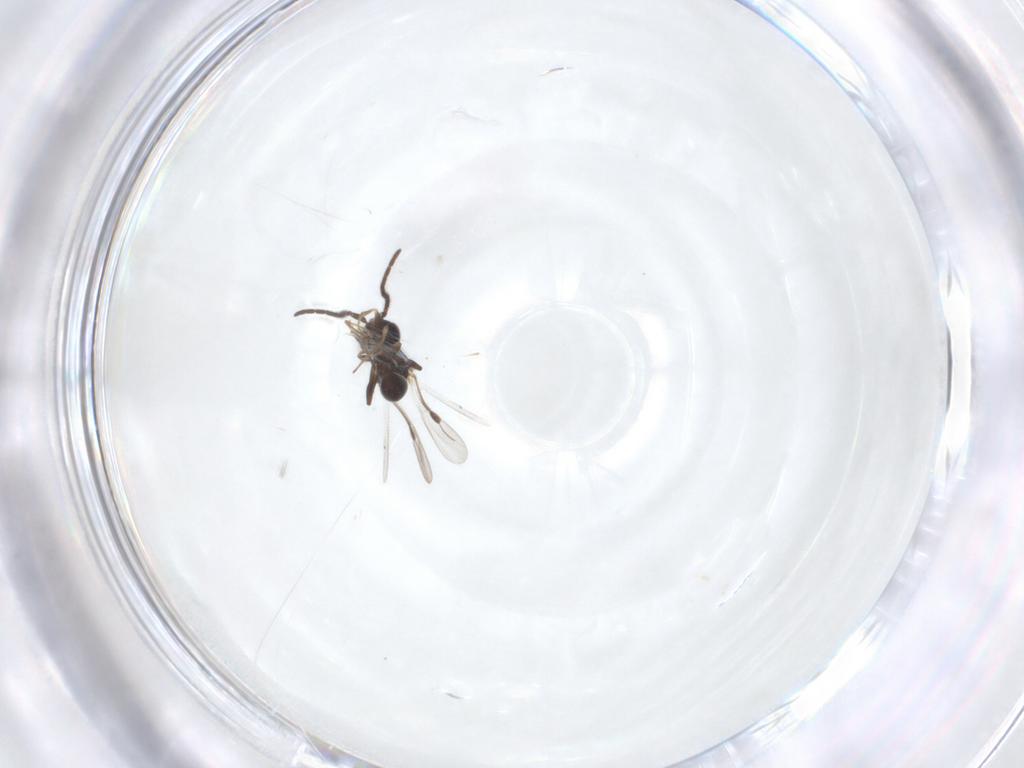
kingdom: Animalia
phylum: Arthropoda
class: Insecta
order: Hymenoptera
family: Megaspilidae
